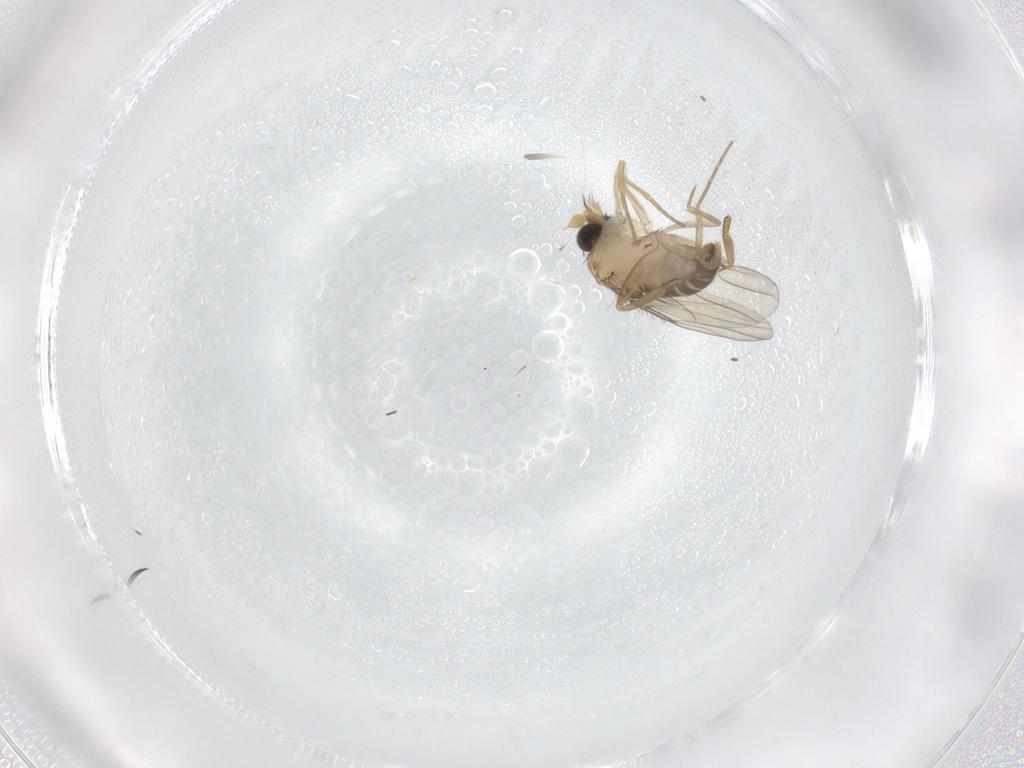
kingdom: Animalia
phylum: Arthropoda
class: Insecta
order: Diptera
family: Phoridae
